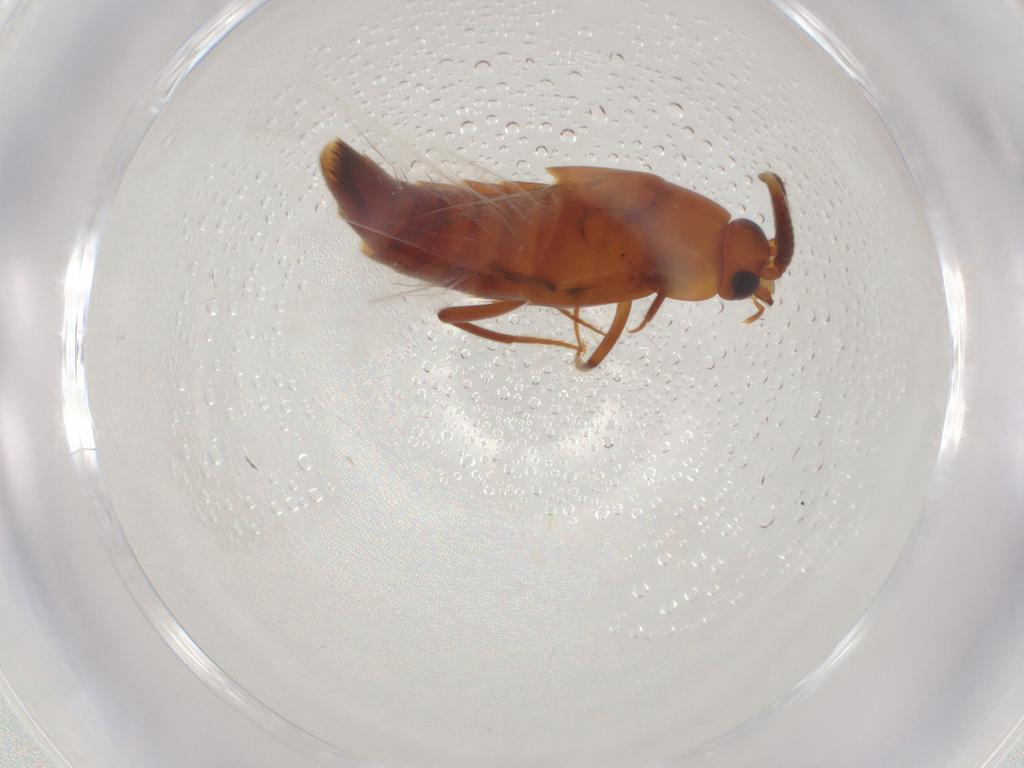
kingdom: Animalia
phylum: Arthropoda
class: Insecta
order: Coleoptera
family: Staphylinidae
